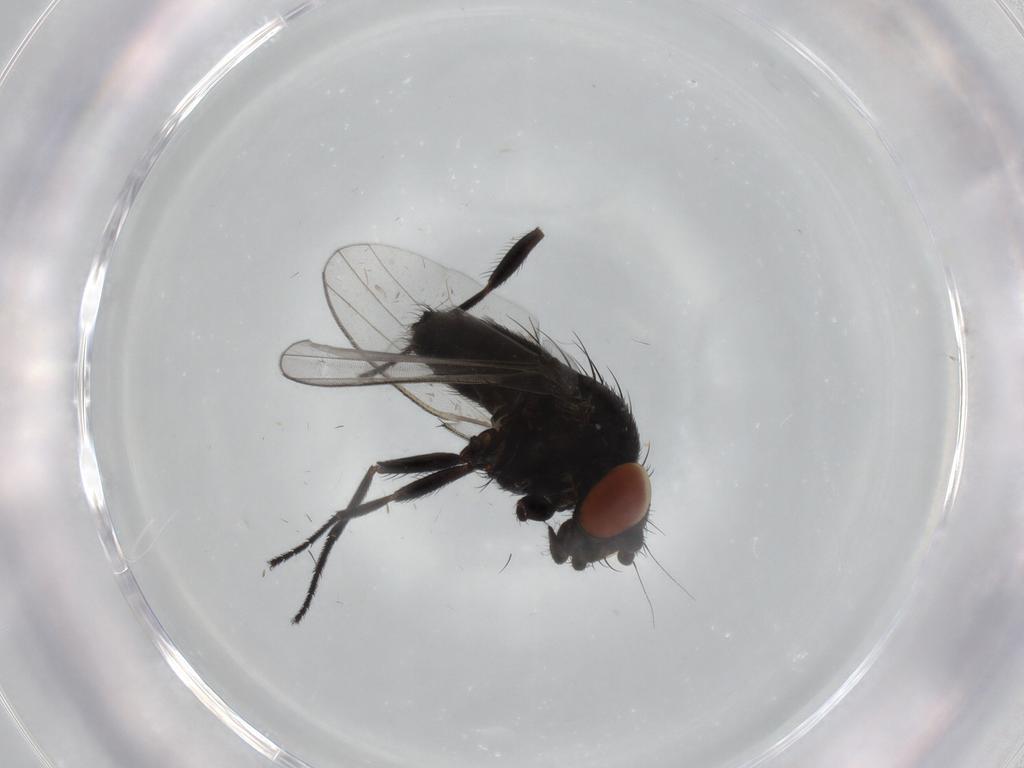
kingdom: Animalia
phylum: Arthropoda
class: Insecta
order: Diptera
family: Milichiidae
